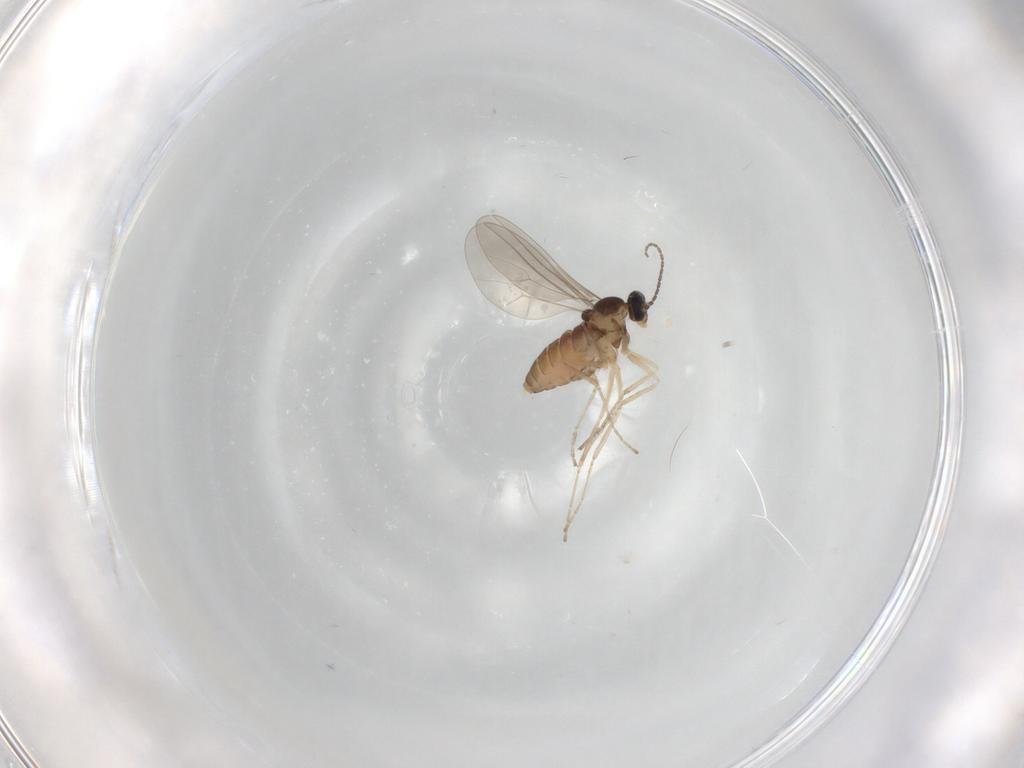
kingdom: Animalia
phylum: Arthropoda
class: Insecta
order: Diptera
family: Cecidomyiidae
